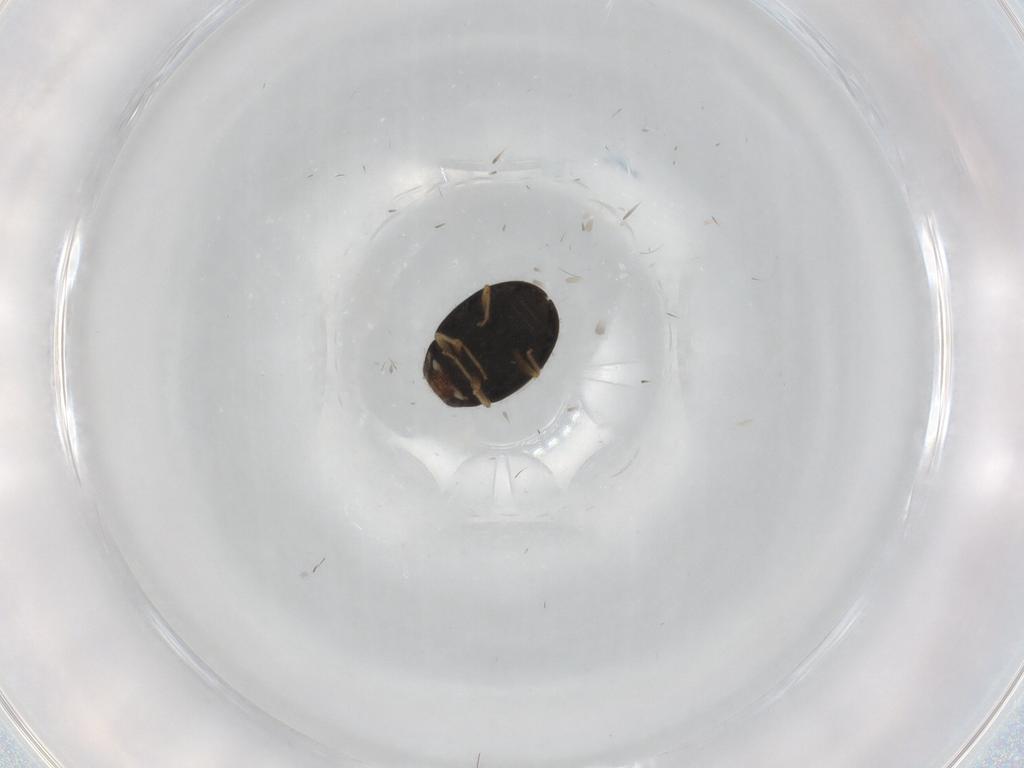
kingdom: Animalia
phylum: Arthropoda
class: Insecta
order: Coleoptera
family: Coccinellidae
